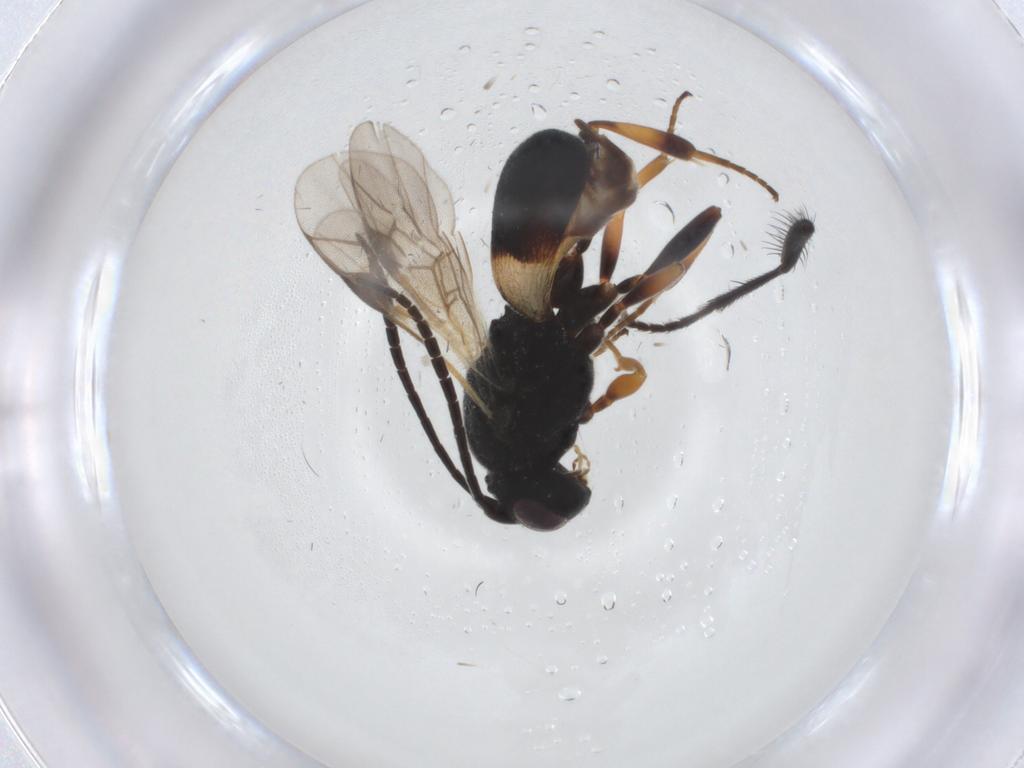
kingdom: Animalia
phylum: Arthropoda
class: Insecta
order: Hymenoptera
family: Braconidae
